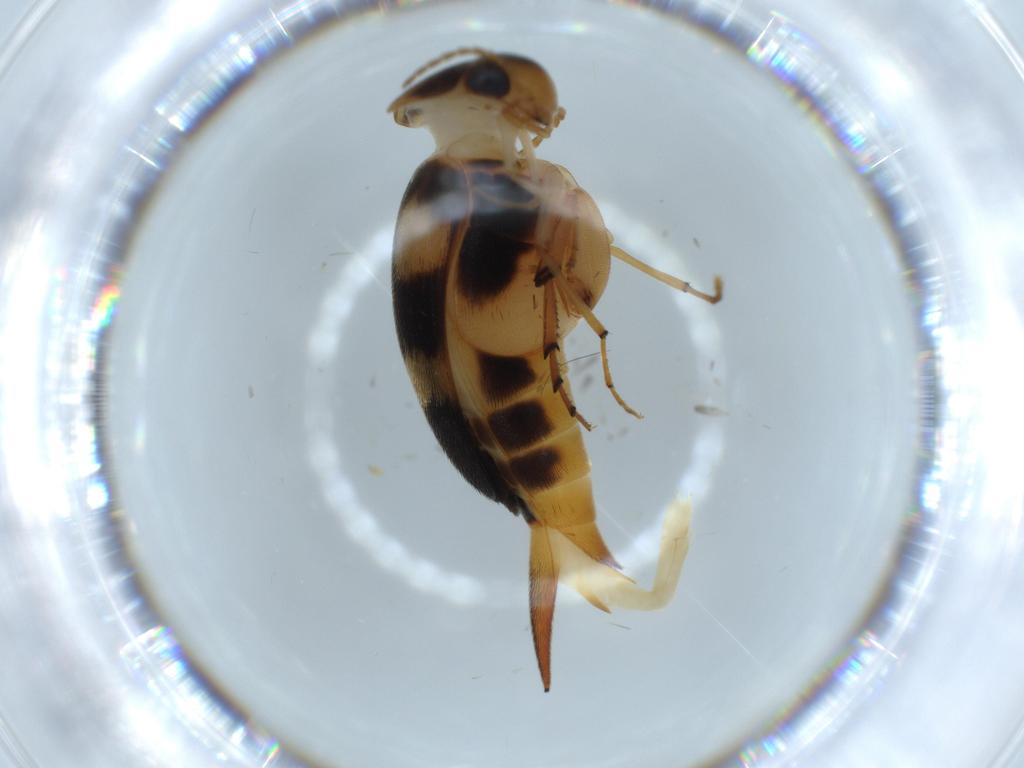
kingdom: Animalia
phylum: Arthropoda
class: Insecta
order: Coleoptera
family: Mordellidae
